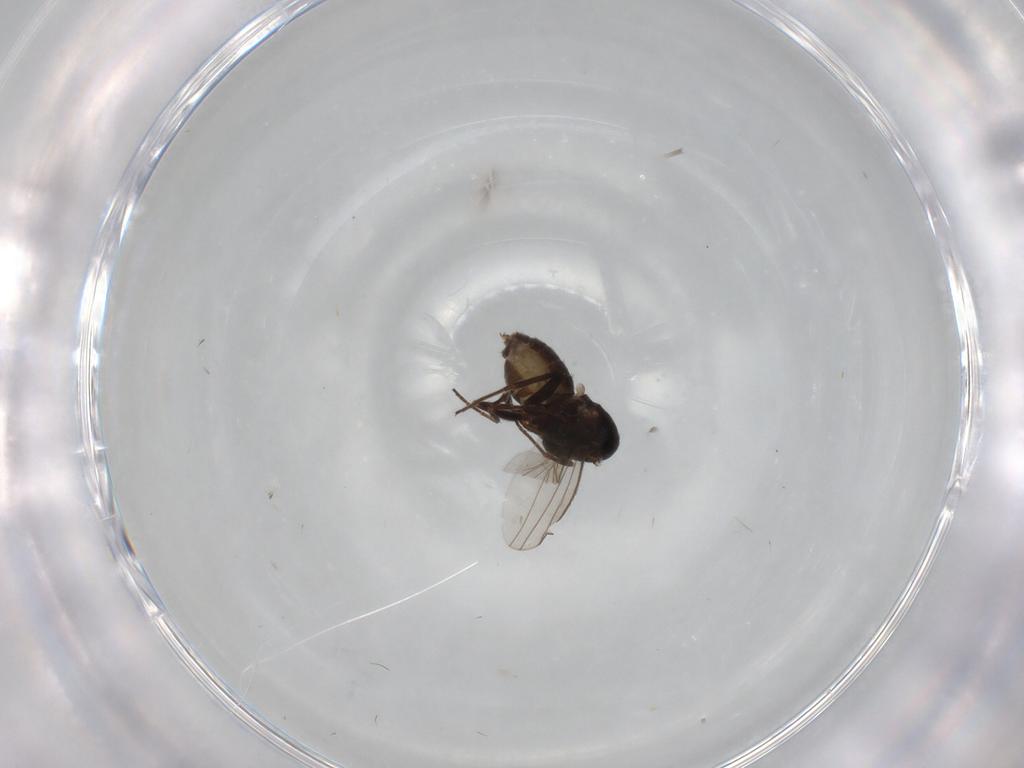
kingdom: Animalia
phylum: Arthropoda
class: Insecta
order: Diptera
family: Dolichopodidae
